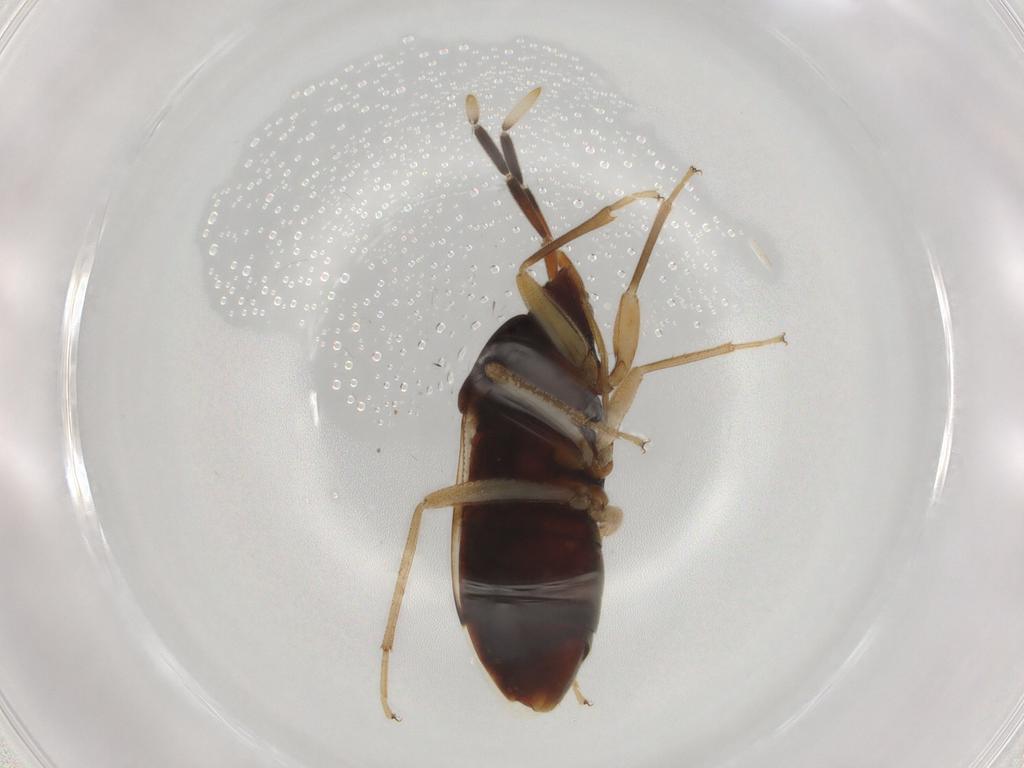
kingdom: Animalia
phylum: Arthropoda
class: Insecta
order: Hemiptera
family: Rhyparochromidae
